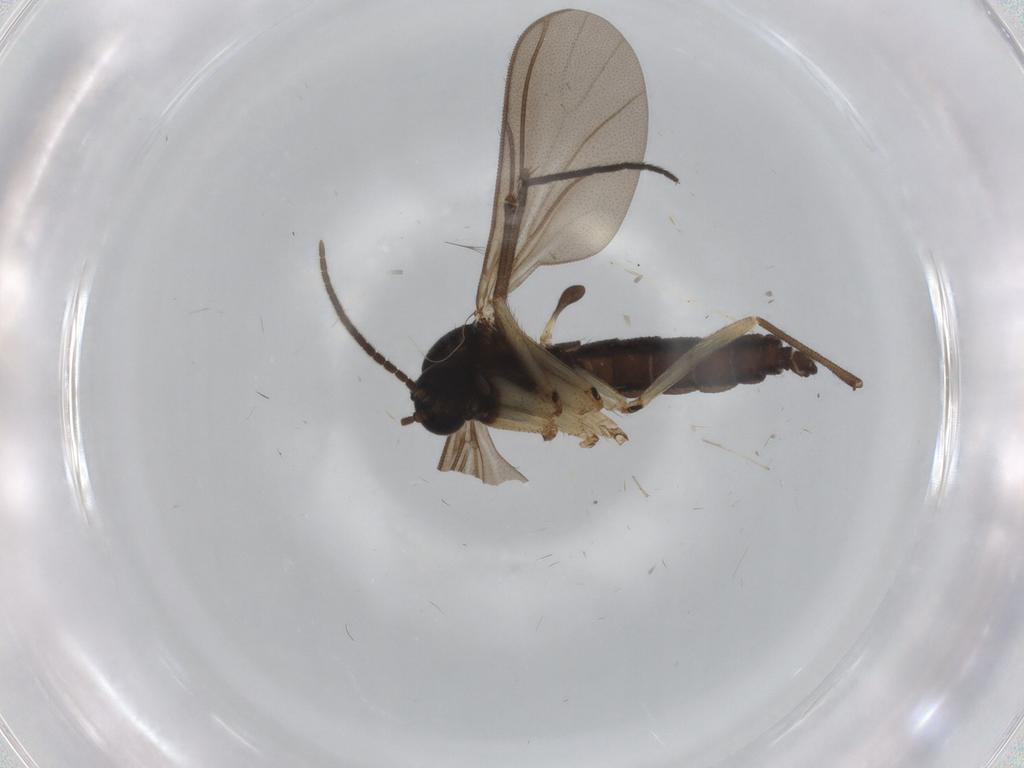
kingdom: Animalia
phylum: Arthropoda
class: Insecta
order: Diptera
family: Sciaridae
